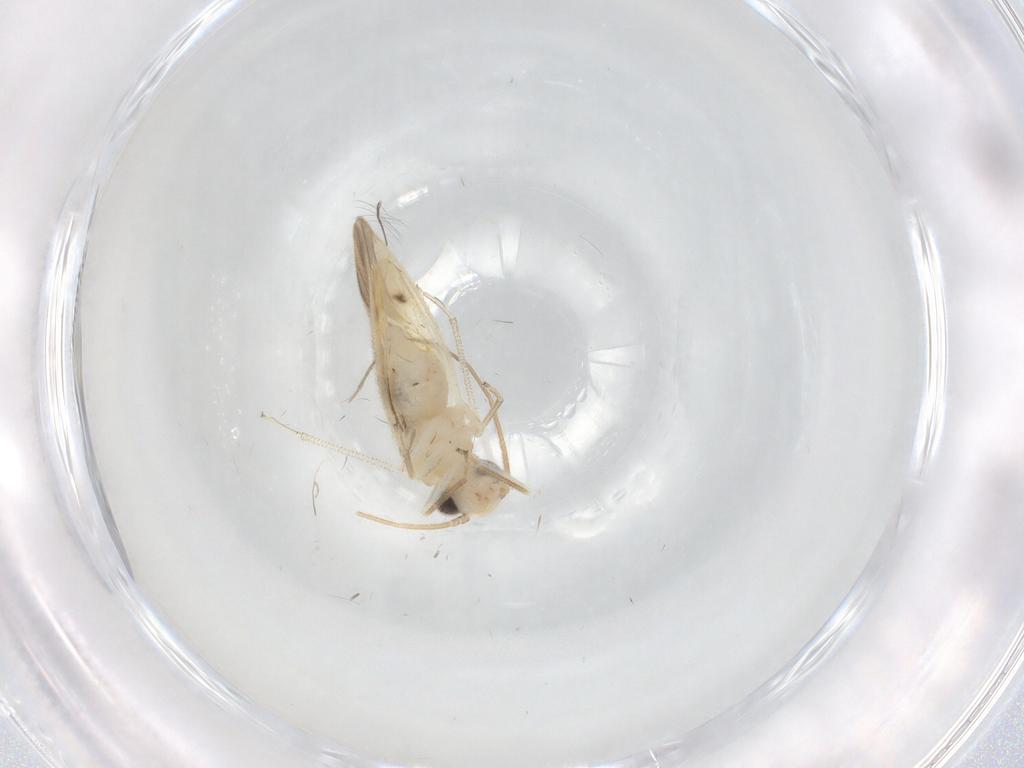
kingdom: Animalia
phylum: Arthropoda
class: Insecta
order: Psocodea
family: Caeciliusidae
